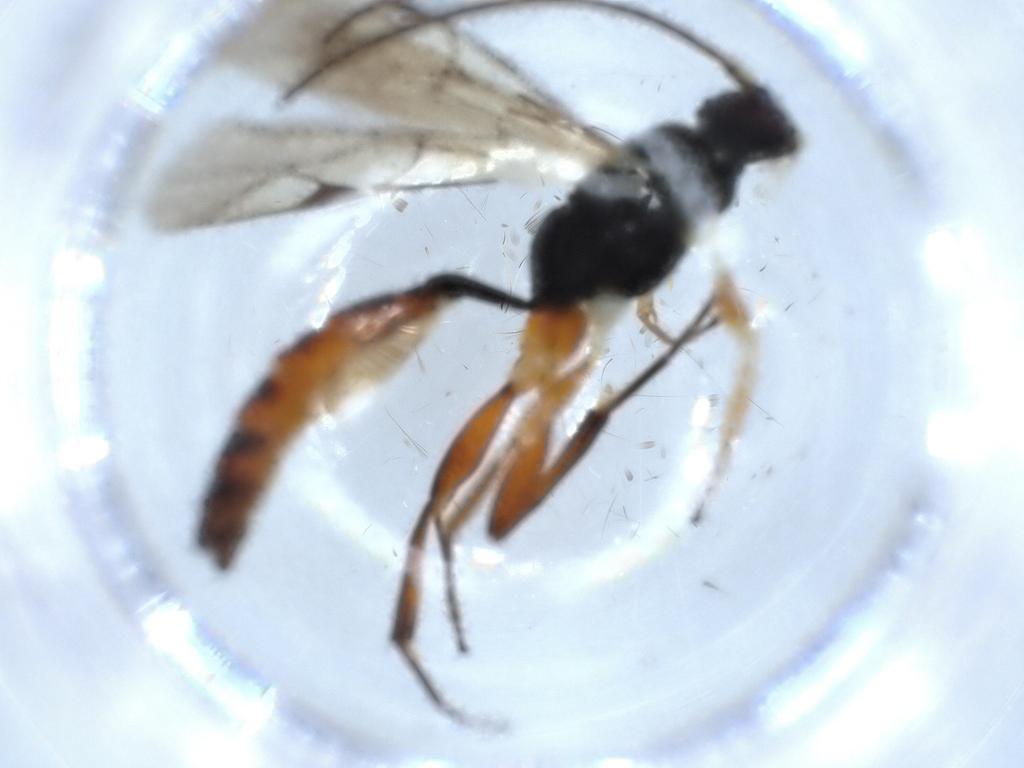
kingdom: Animalia
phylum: Arthropoda
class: Insecta
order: Hymenoptera
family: Ichneumonidae
